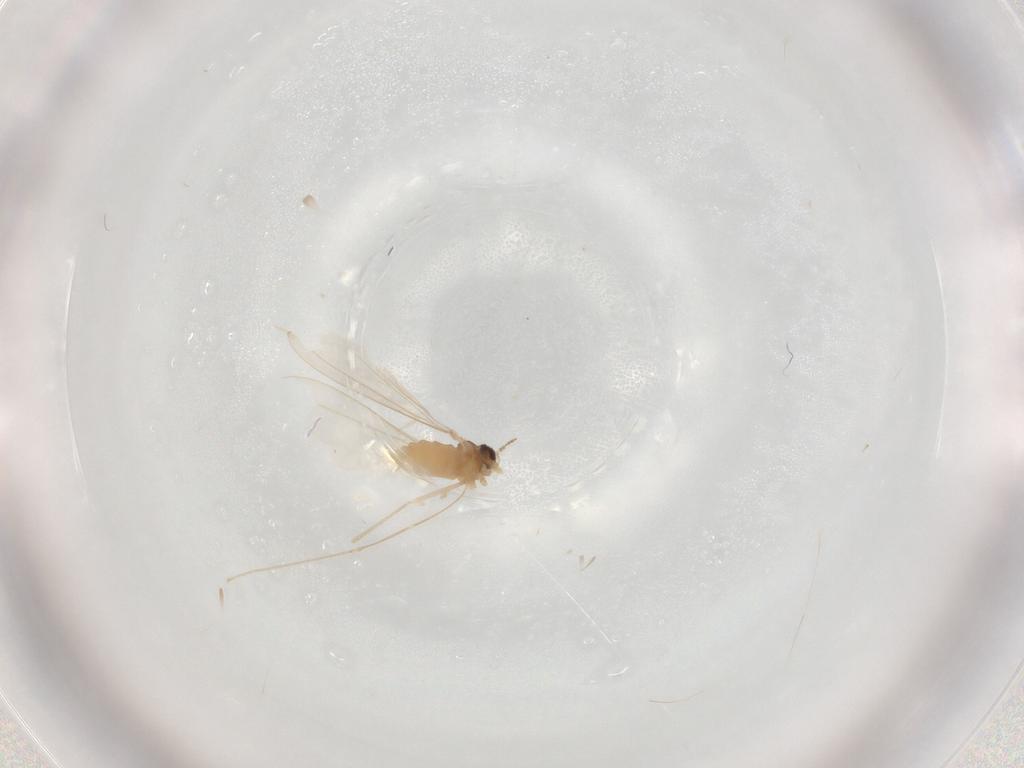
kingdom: Animalia
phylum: Arthropoda
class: Insecta
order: Diptera
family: Cecidomyiidae
